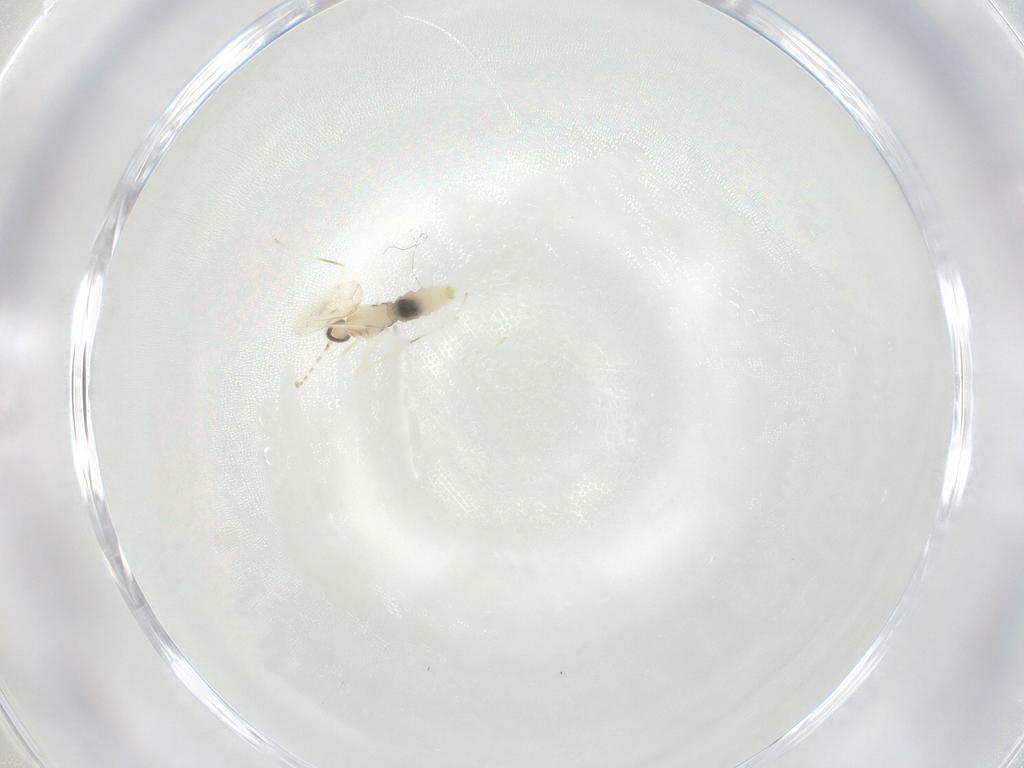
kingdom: Animalia
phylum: Arthropoda
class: Insecta
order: Diptera
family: Cecidomyiidae
